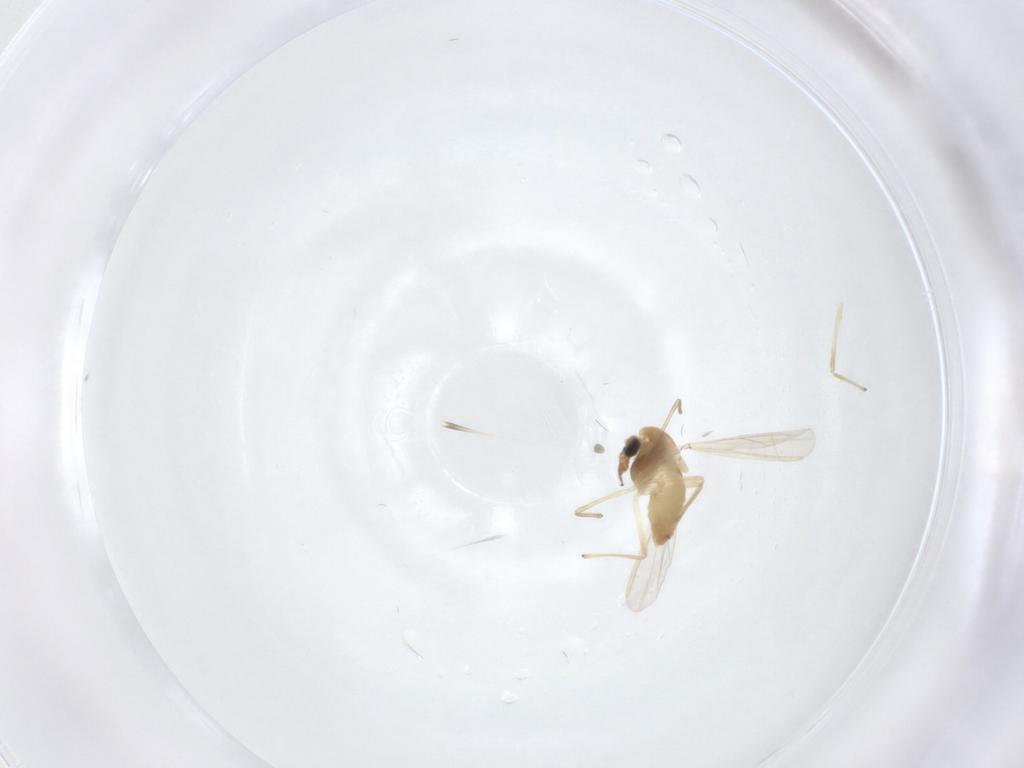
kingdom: Animalia
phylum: Arthropoda
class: Insecta
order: Diptera
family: Chironomidae
